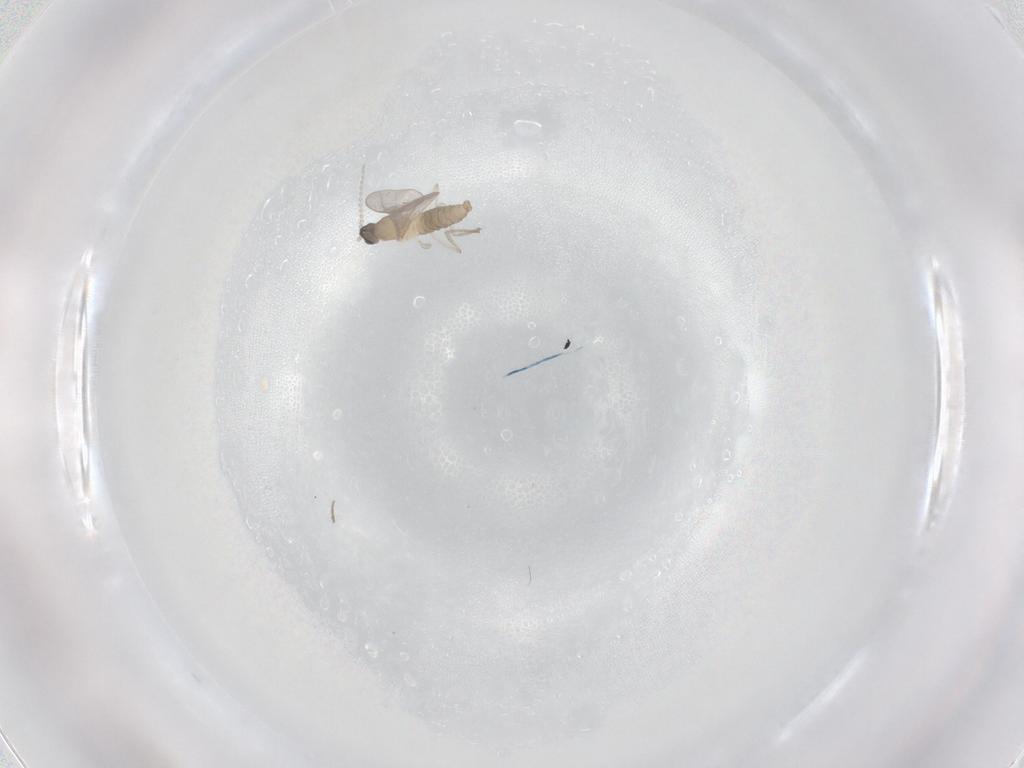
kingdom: Animalia
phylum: Arthropoda
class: Insecta
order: Diptera
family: Cecidomyiidae
